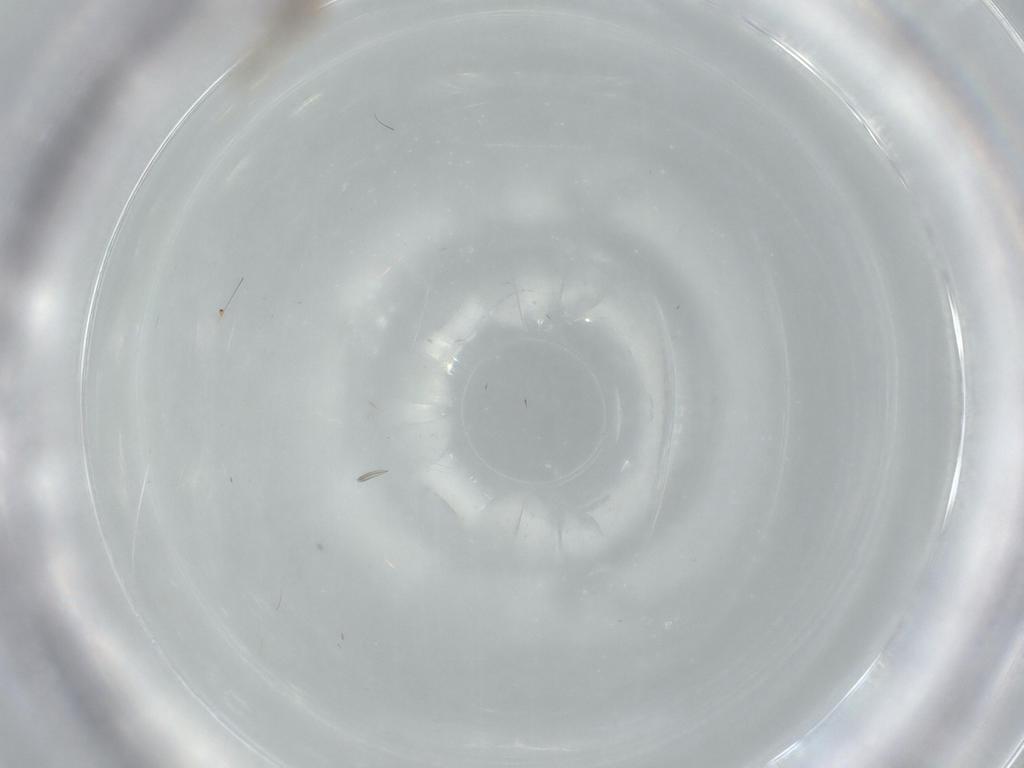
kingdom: Animalia
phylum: Arthropoda
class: Insecta
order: Psocodea
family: Liposcelididae
